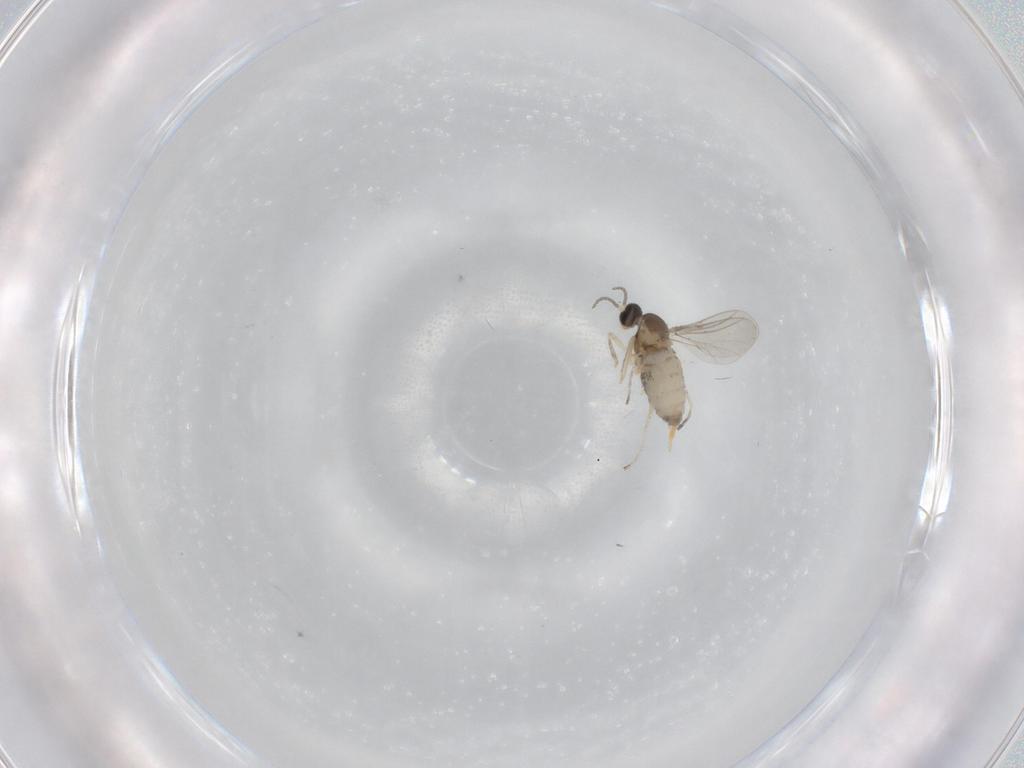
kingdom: Animalia
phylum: Arthropoda
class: Insecta
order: Diptera
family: Cecidomyiidae
